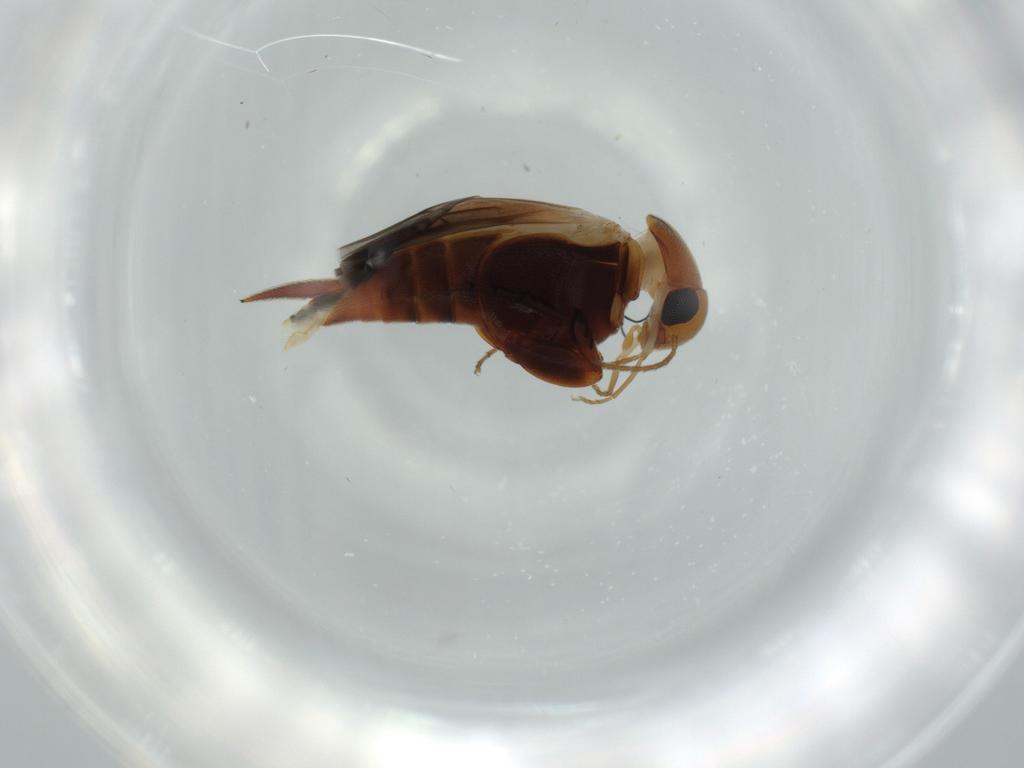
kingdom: Animalia
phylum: Arthropoda
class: Insecta
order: Coleoptera
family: Mordellidae
